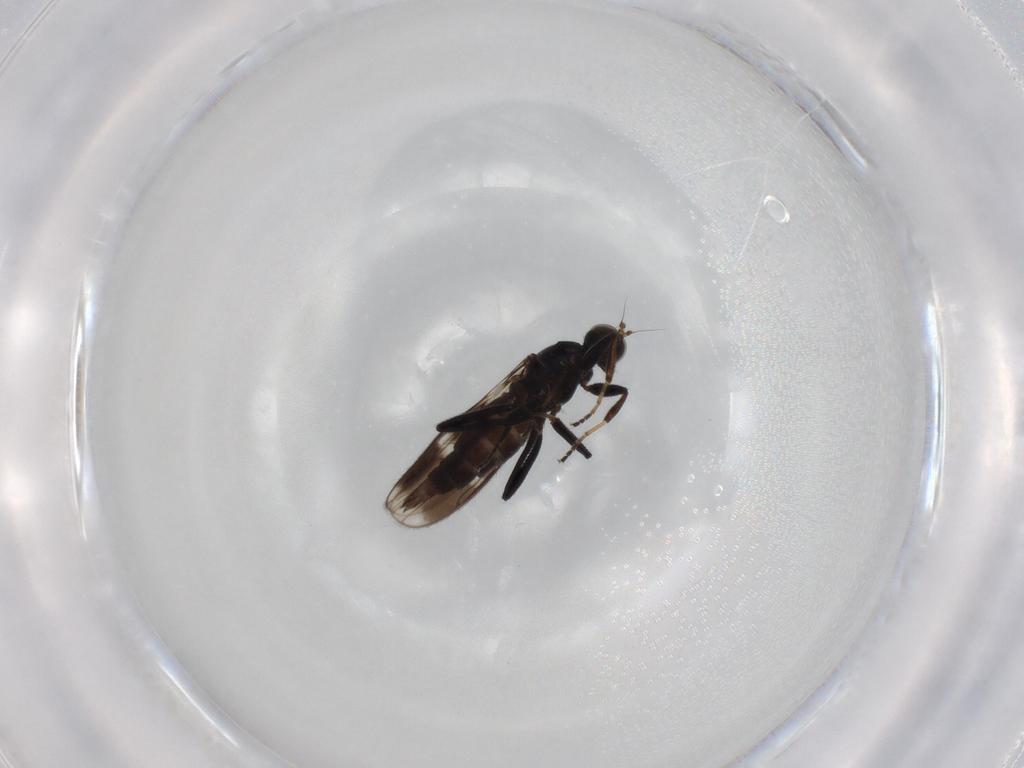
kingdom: Animalia
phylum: Arthropoda
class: Insecta
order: Diptera
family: Hybotidae
